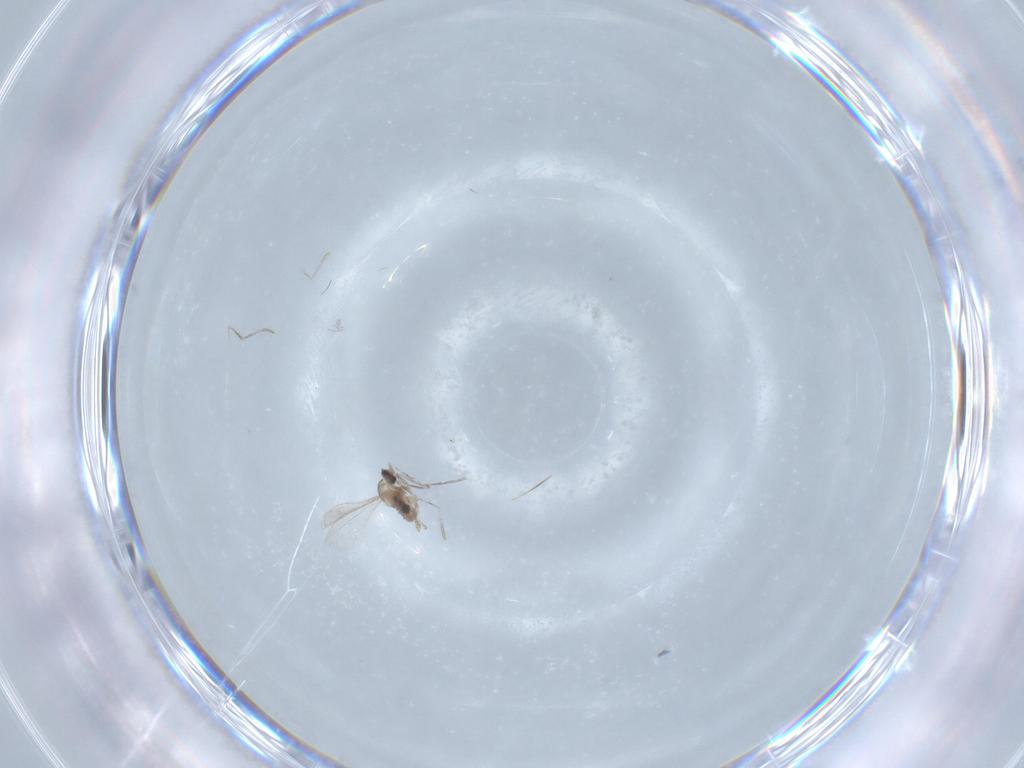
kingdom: Animalia
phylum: Arthropoda
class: Insecta
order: Diptera
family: Cecidomyiidae
